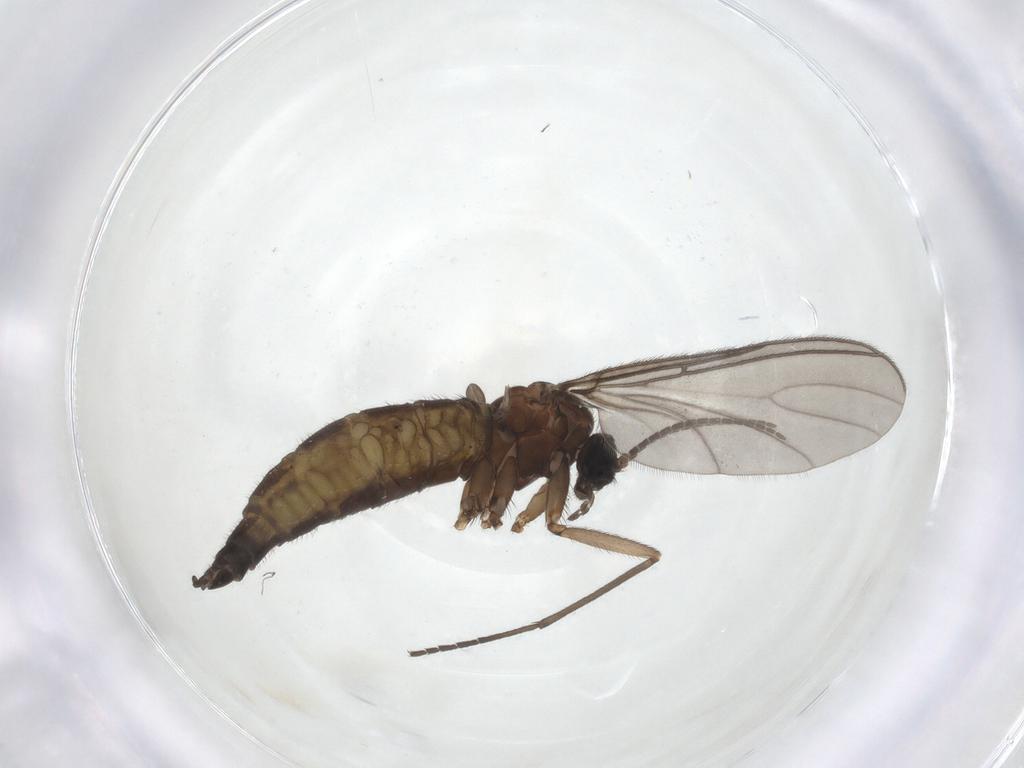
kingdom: Animalia
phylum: Arthropoda
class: Insecta
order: Diptera
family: Sciaridae
